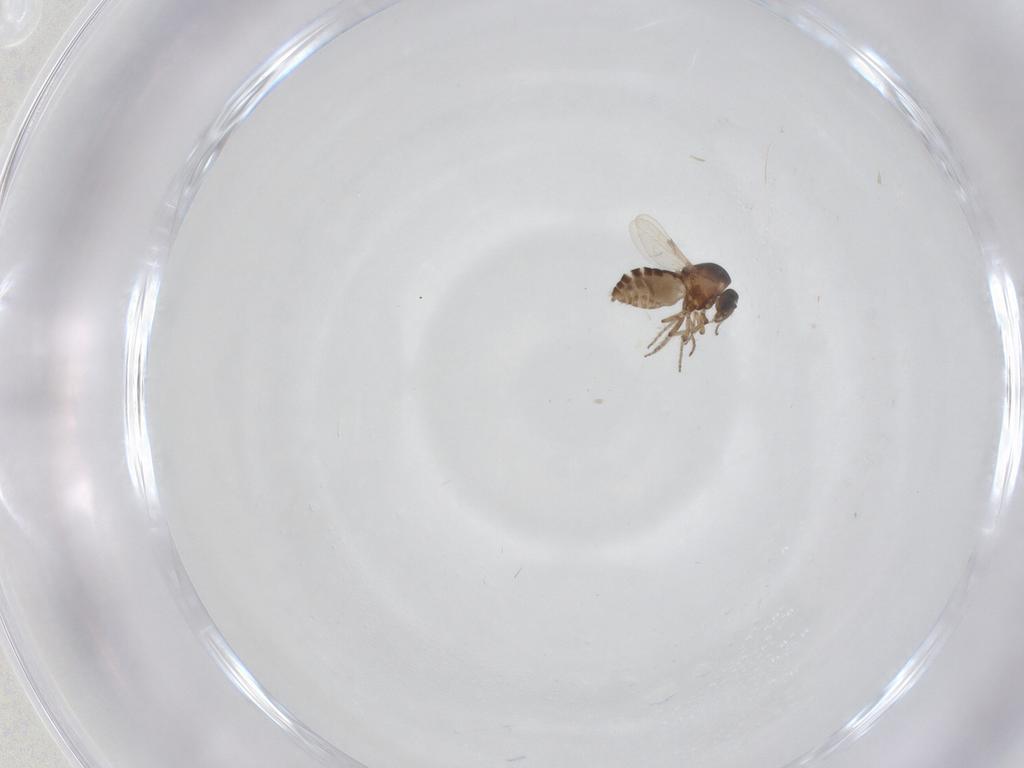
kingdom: Animalia
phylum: Arthropoda
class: Insecta
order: Diptera
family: Ceratopogonidae
